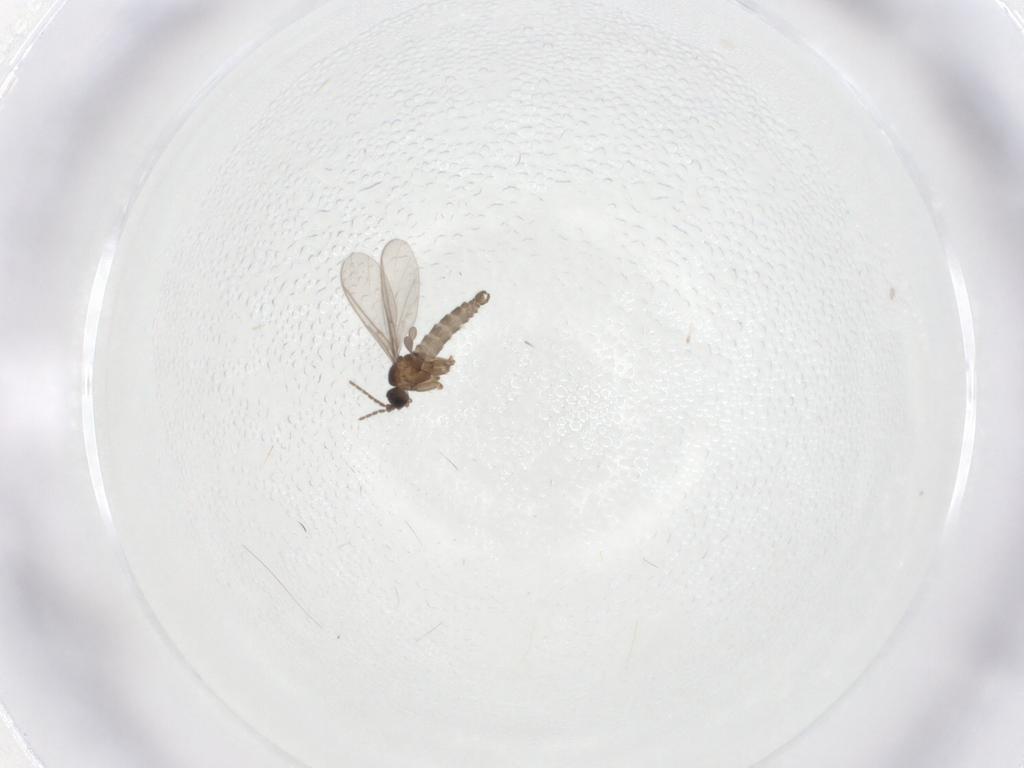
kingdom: Animalia
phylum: Arthropoda
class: Insecta
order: Diptera
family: Sciaridae
